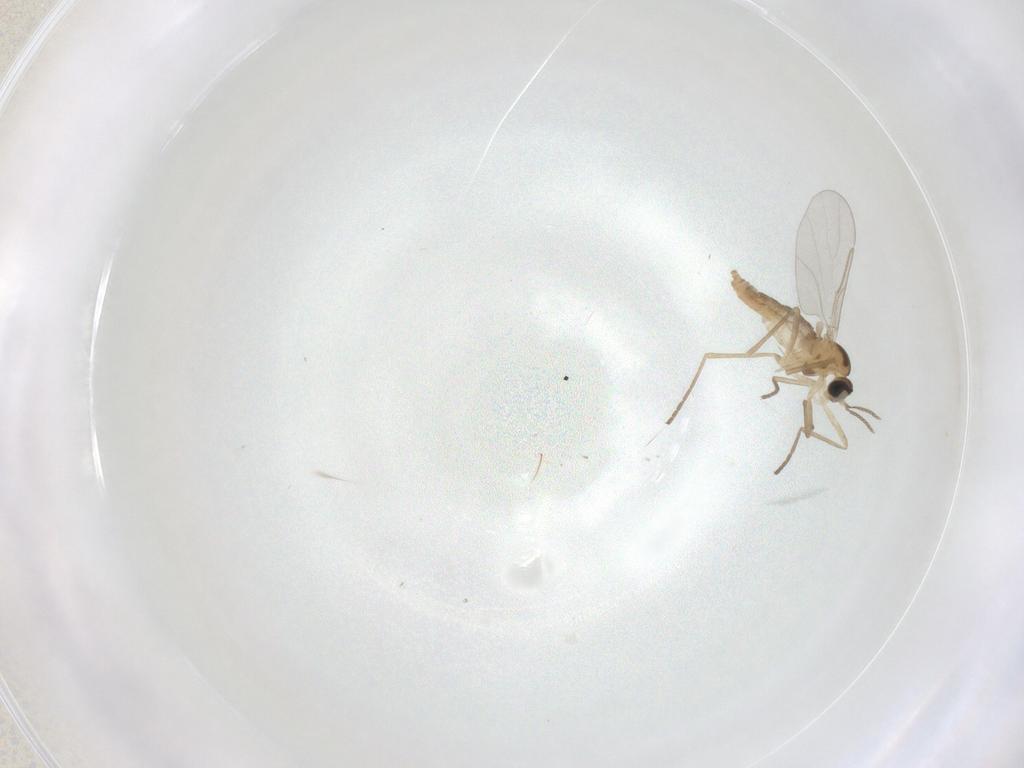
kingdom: Animalia
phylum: Arthropoda
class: Insecta
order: Diptera
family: Cecidomyiidae
